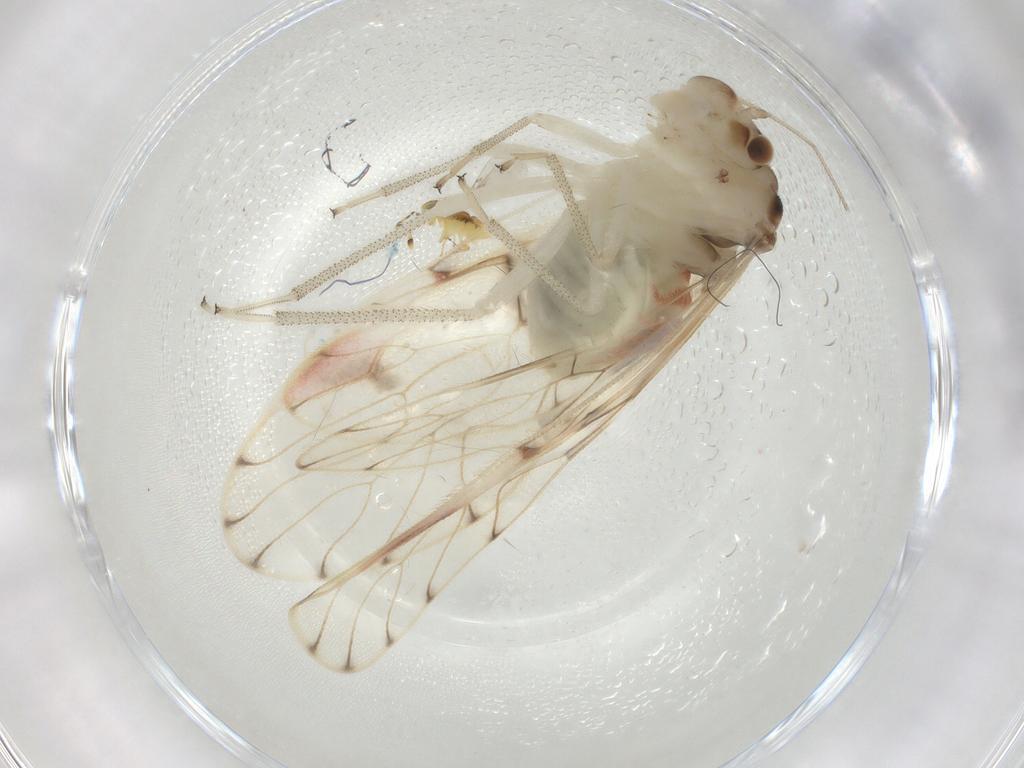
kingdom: Animalia
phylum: Arthropoda
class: Insecta
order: Psocodea
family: Amphipsocidae
